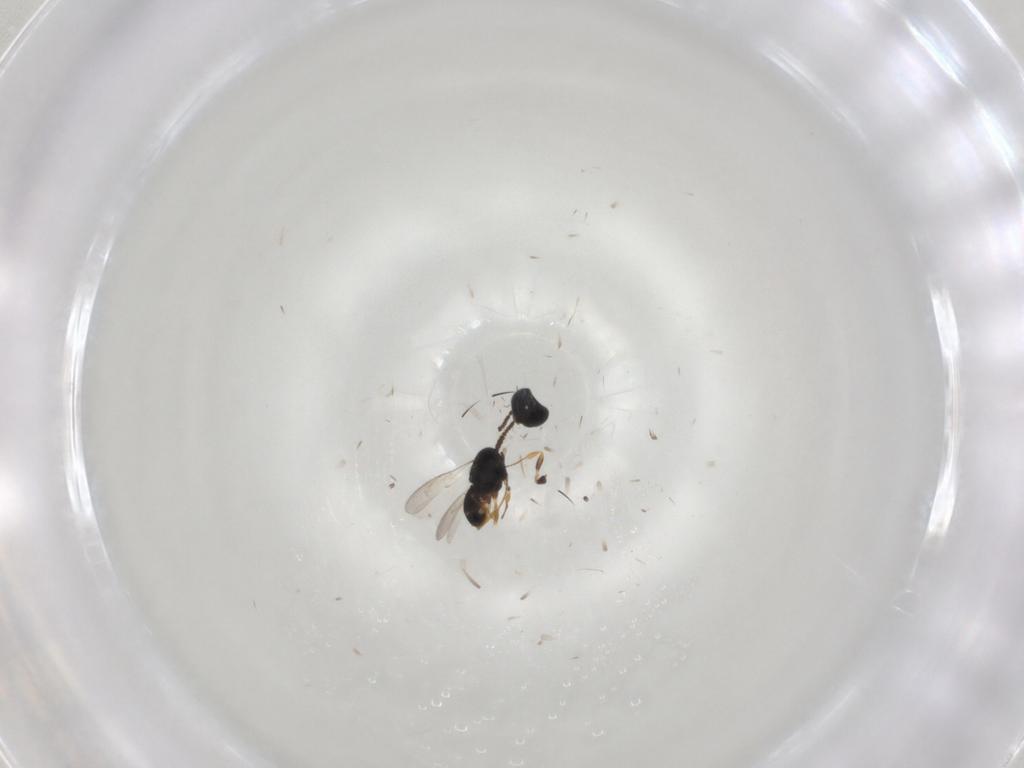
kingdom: Animalia
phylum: Arthropoda
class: Insecta
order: Hymenoptera
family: Scelionidae
